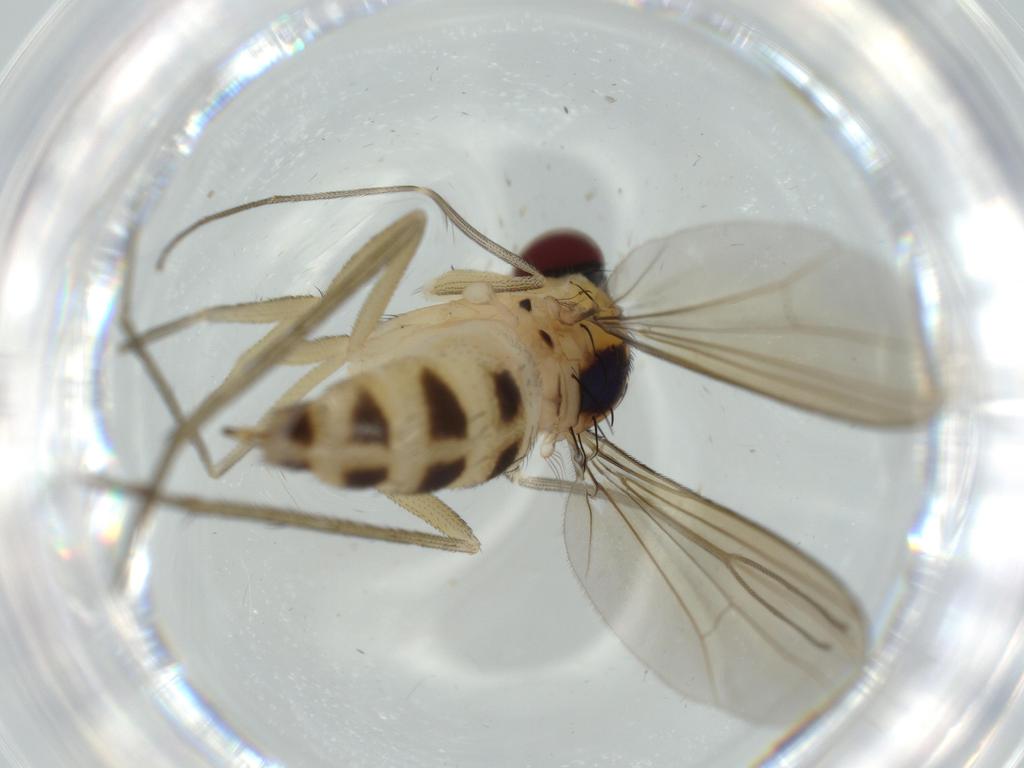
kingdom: Animalia
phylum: Arthropoda
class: Insecta
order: Diptera
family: Dolichopodidae
